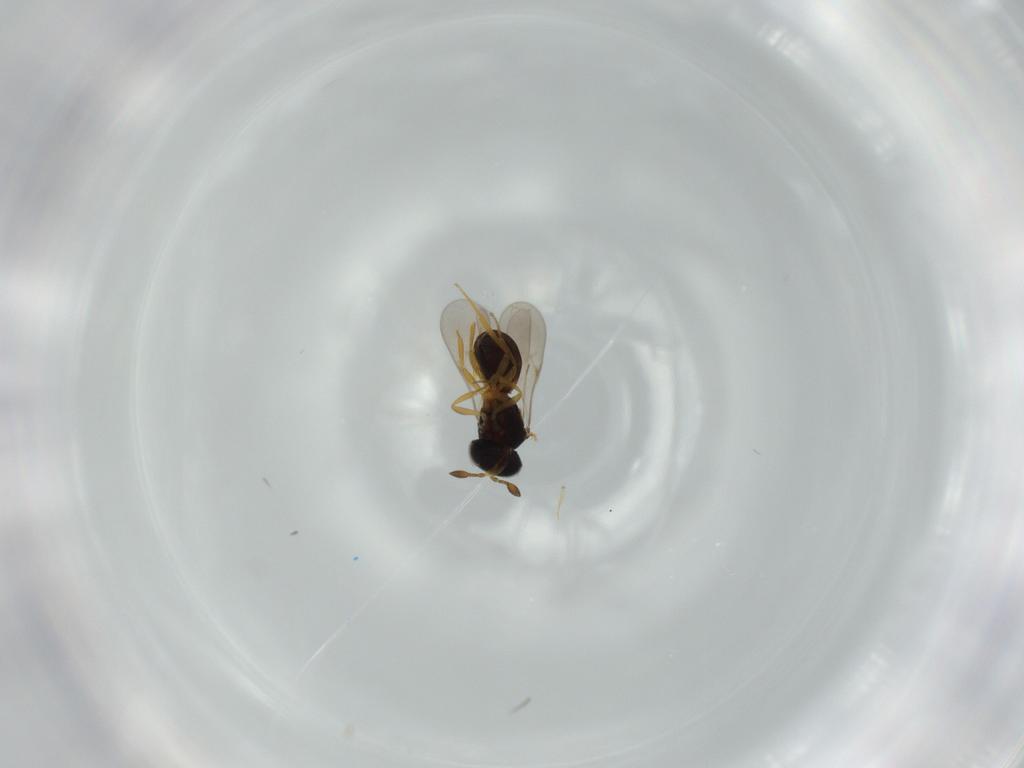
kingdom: Animalia
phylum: Arthropoda
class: Insecta
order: Hymenoptera
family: Scelionidae
